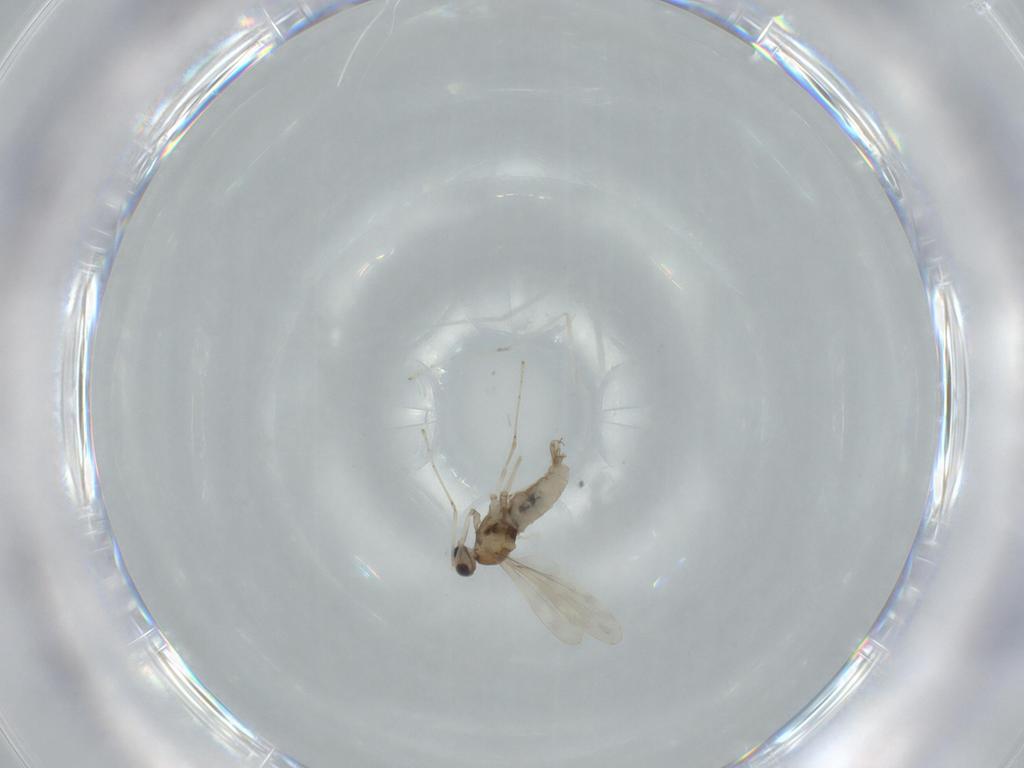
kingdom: Animalia
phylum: Arthropoda
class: Insecta
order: Diptera
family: Cecidomyiidae
